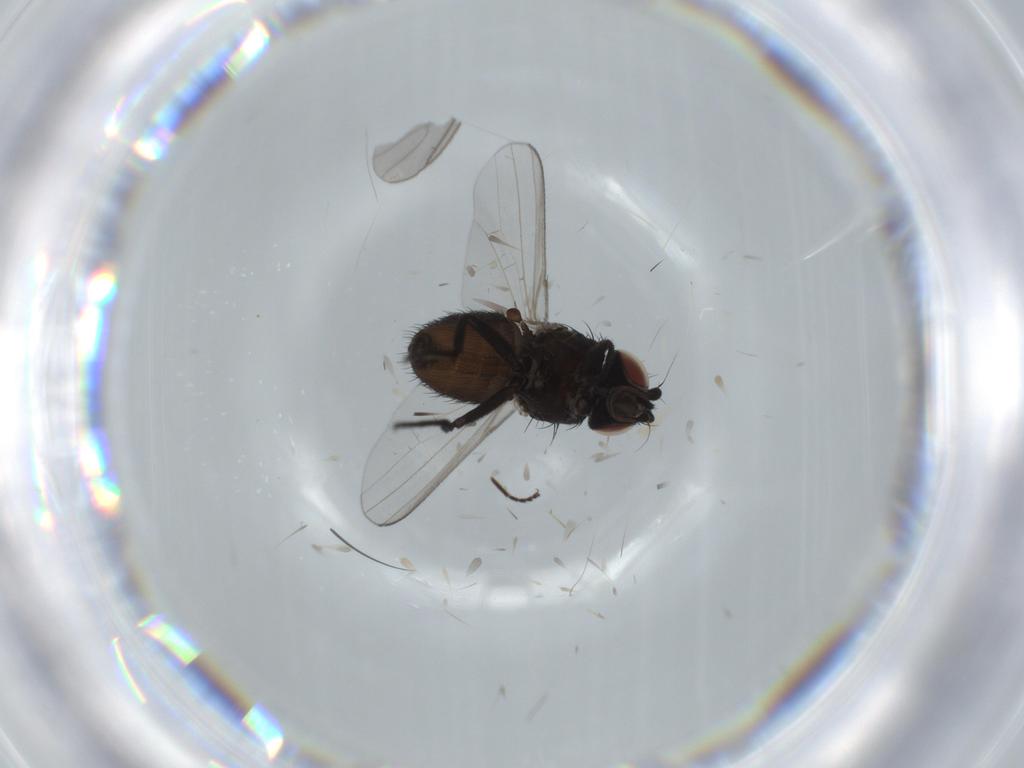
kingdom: Animalia
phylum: Arthropoda
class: Insecta
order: Diptera
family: Chloropidae
